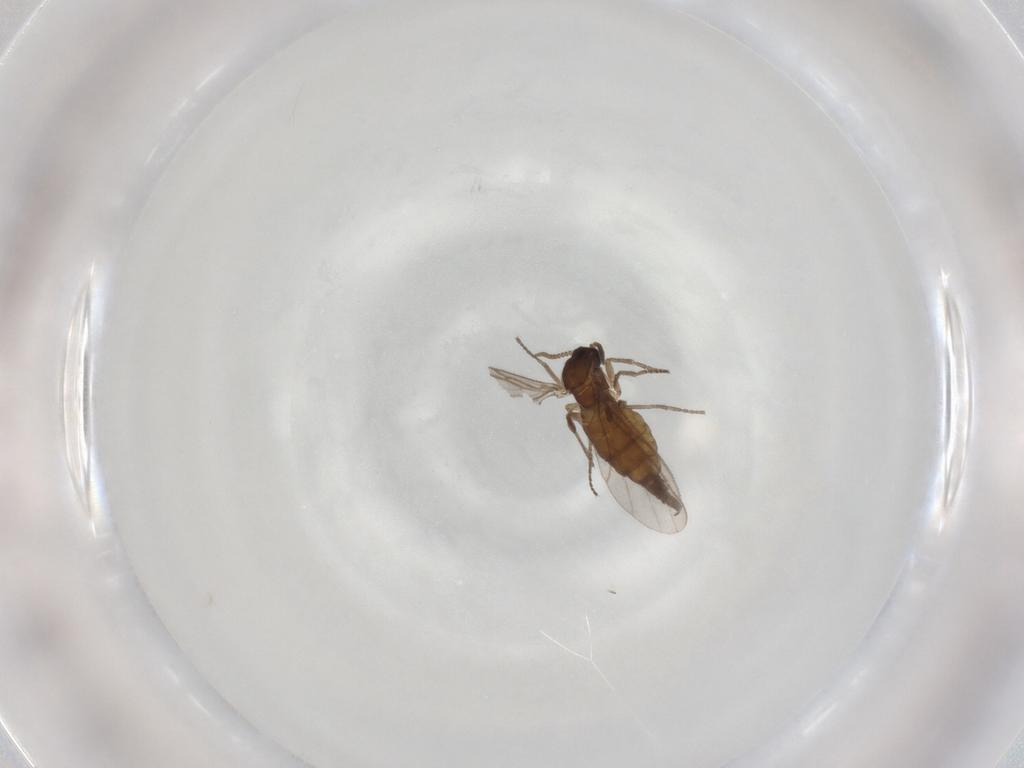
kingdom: Animalia
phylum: Arthropoda
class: Insecta
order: Diptera
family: Sciaridae
